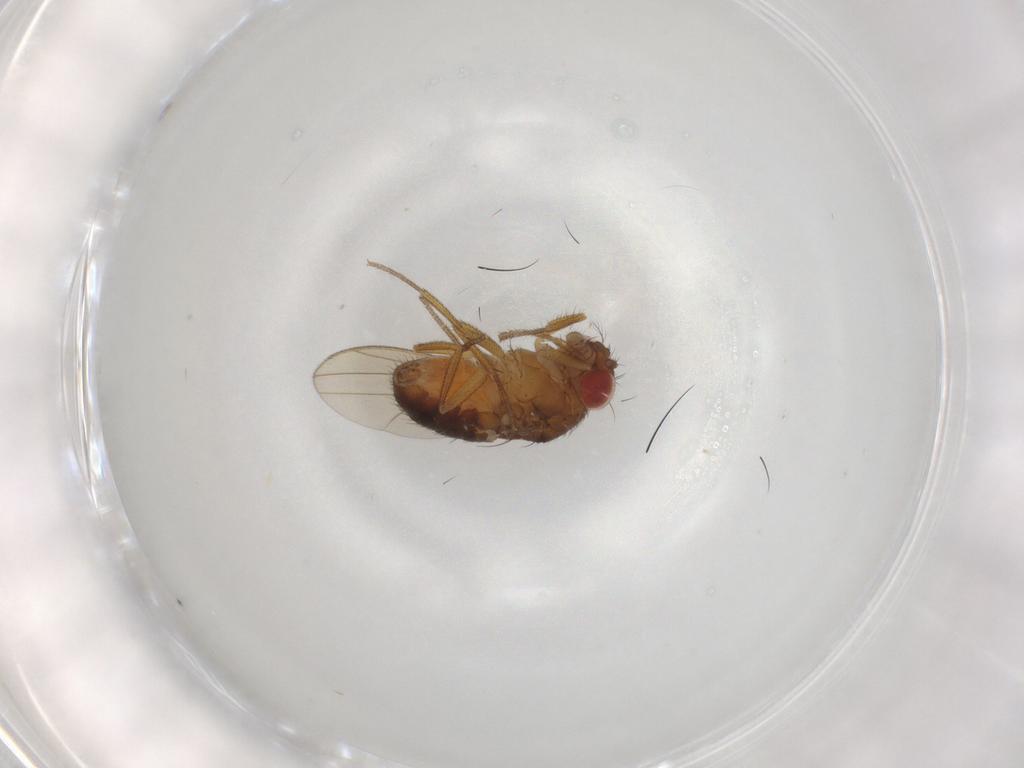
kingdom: Animalia
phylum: Arthropoda
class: Insecta
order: Diptera
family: Drosophilidae
